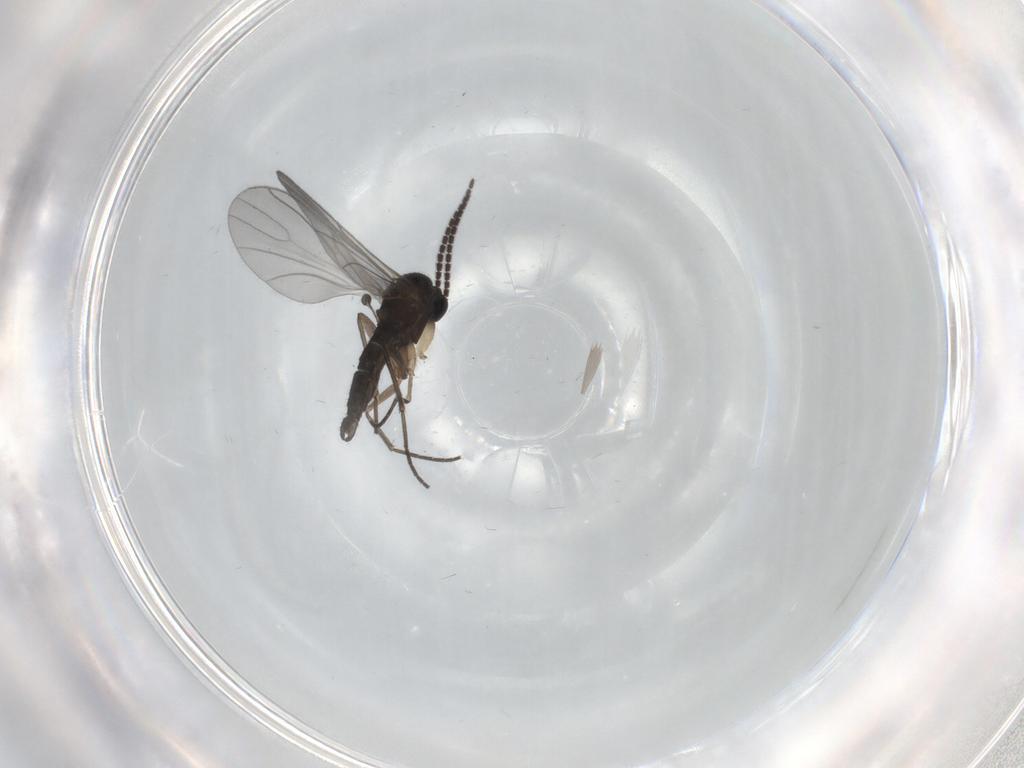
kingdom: Animalia
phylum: Arthropoda
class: Insecta
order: Diptera
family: Sciaridae
